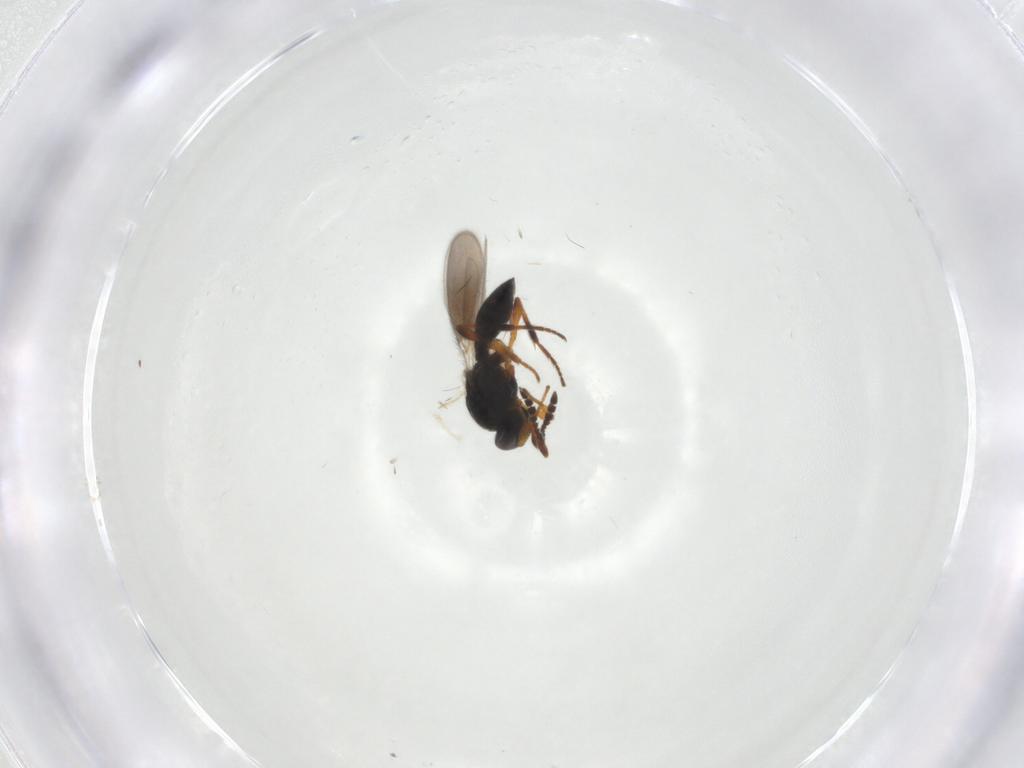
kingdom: Animalia
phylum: Arthropoda
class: Insecta
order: Hymenoptera
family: Platygastridae
